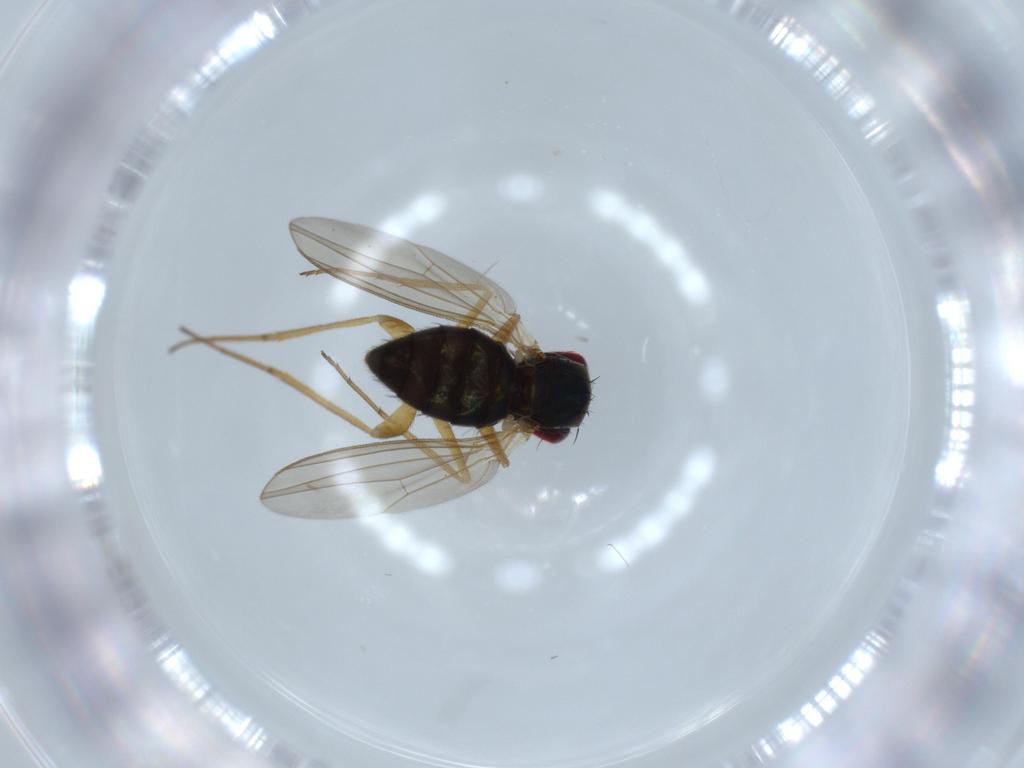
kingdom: Animalia
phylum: Arthropoda
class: Insecta
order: Diptera
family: Dolichopodidae
